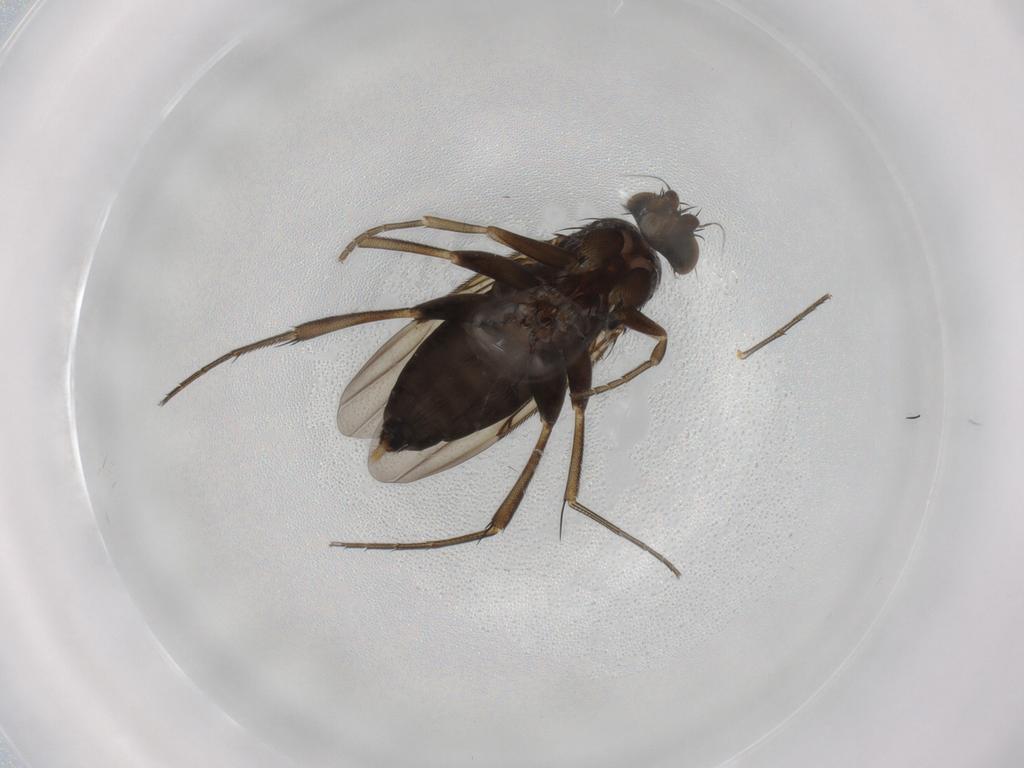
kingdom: Animalia
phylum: Arthropoda
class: Insecta
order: Diptera
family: Phoridae
